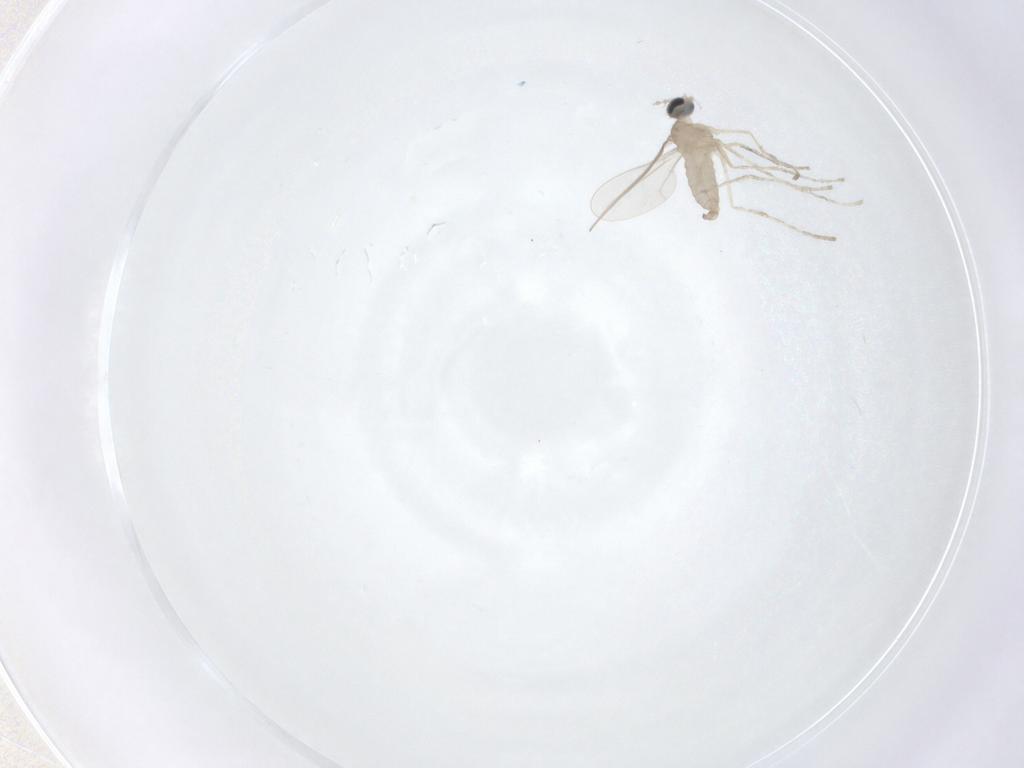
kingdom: Animalia
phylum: Arthropoda
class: Insecta
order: Diptera
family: Cecidomyiidae
